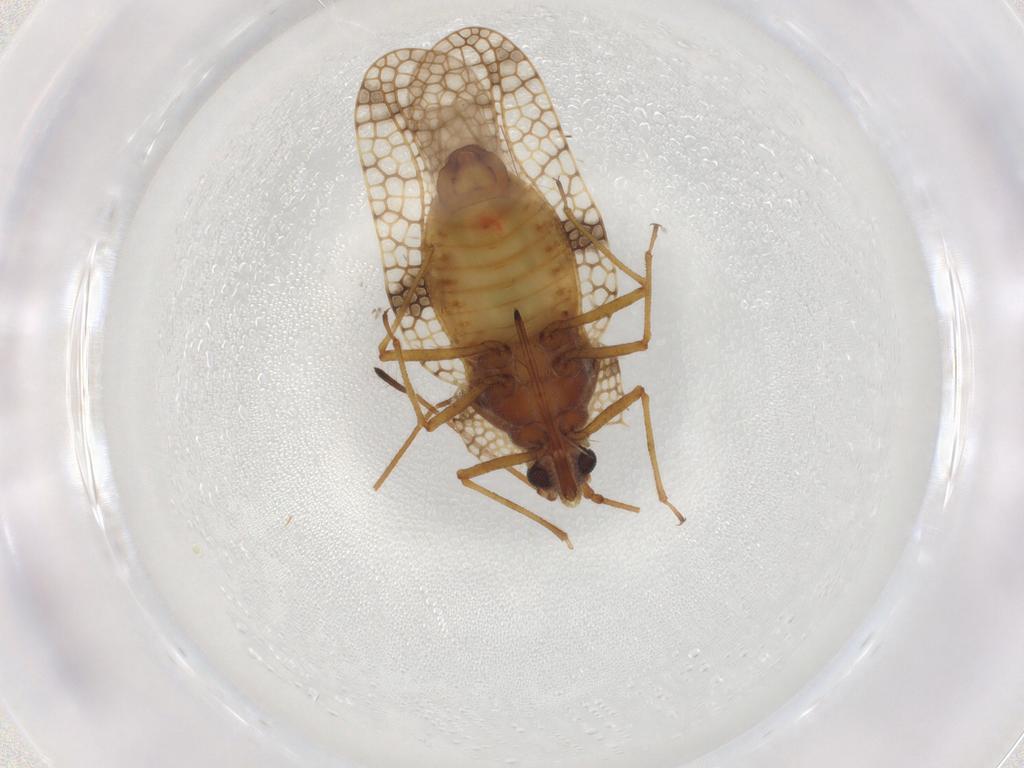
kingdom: Animalia
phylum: Arthropoda
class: Insecta
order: Hemiptera
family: Tingidae
